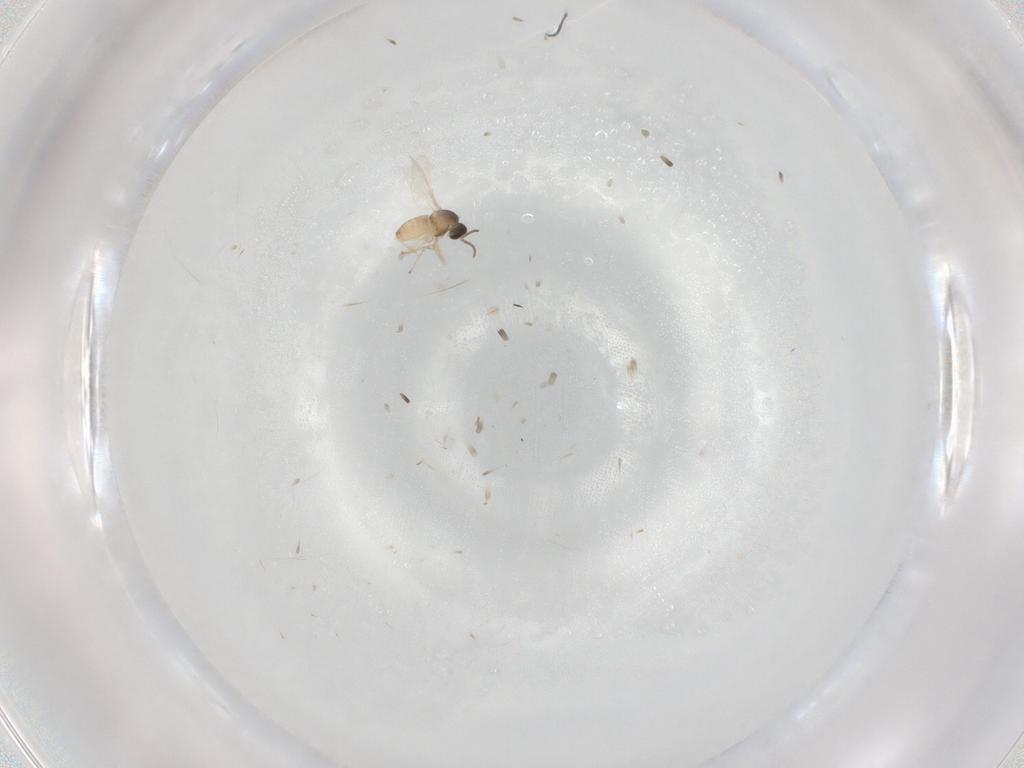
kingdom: Animalia
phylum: Arthropoda
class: Insecta
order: Diptera
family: Cecidomyiidae
